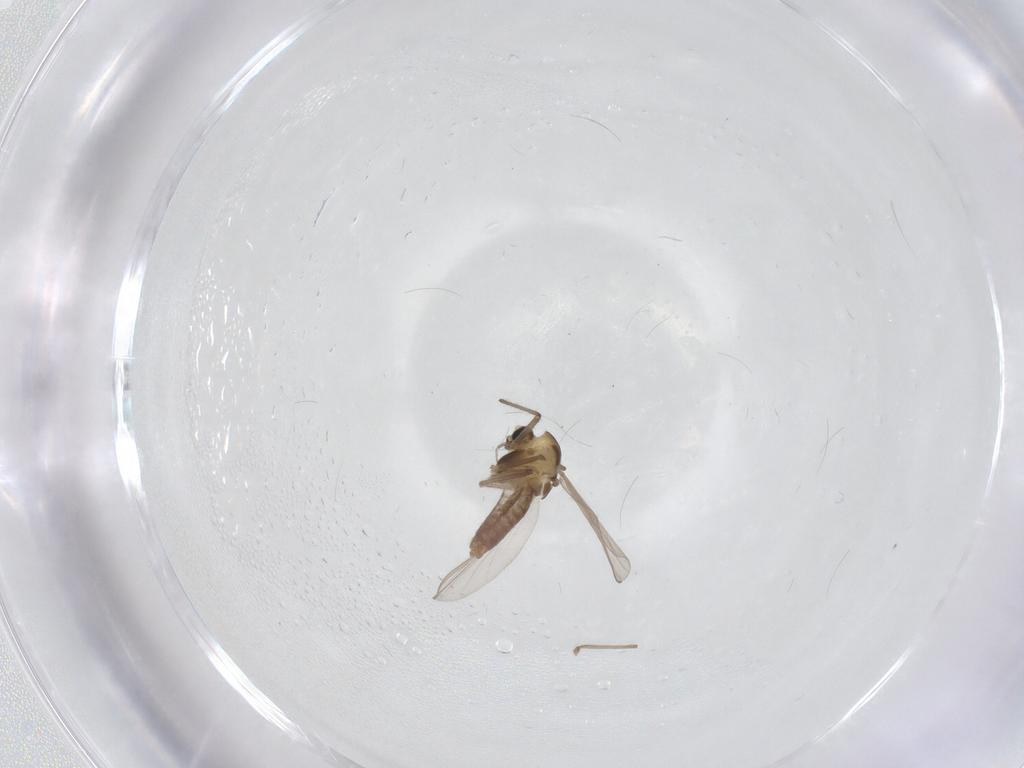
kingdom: Animalia
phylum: Arthropoda
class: Insecta
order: Diptera
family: Chironomidae
